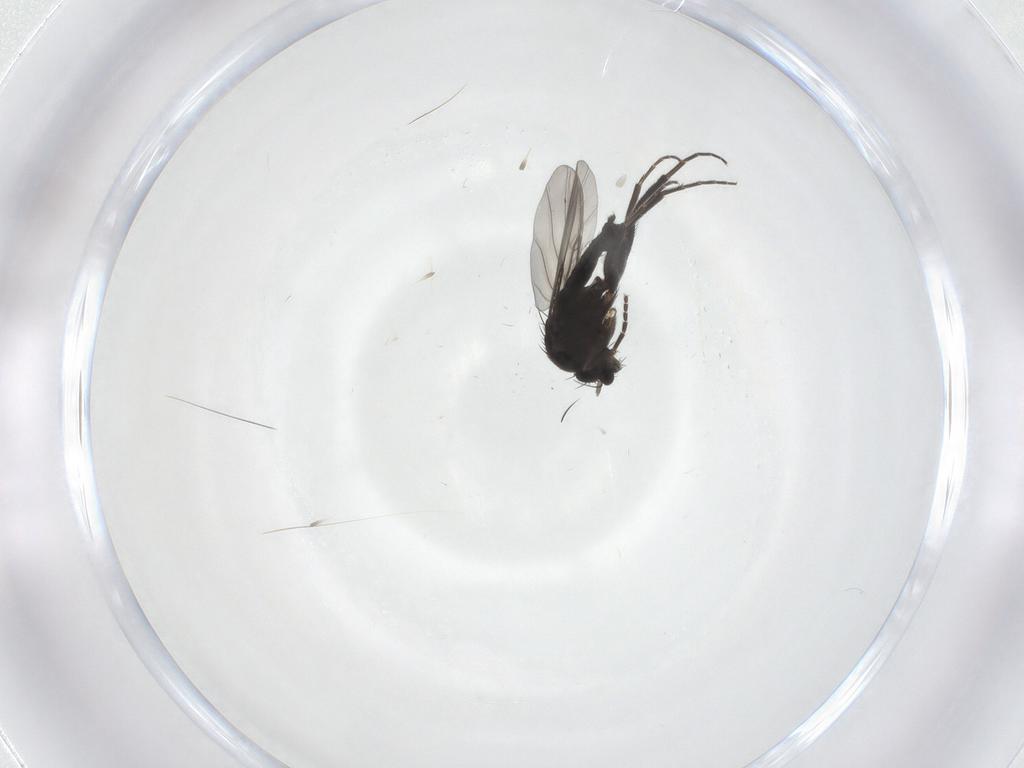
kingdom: Animalia
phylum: Arthropoda
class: Insecta
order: Diptera
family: Phoridae
